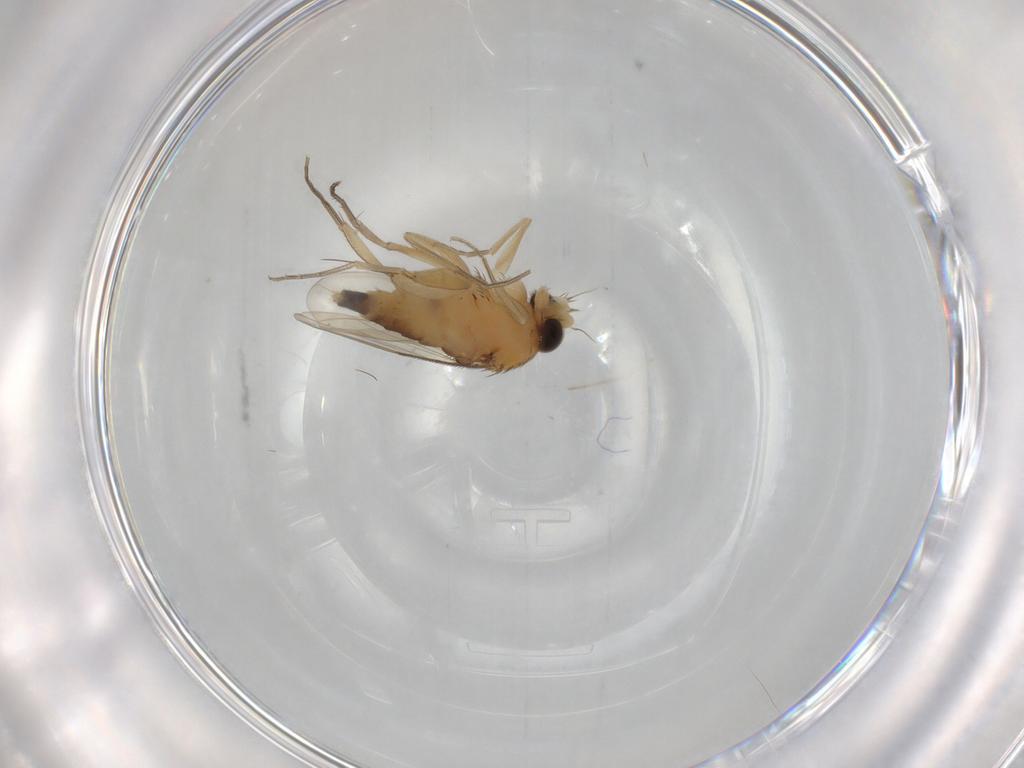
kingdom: Animalia
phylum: Arthropoda
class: Insecta
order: Diptera
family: Phoridae
